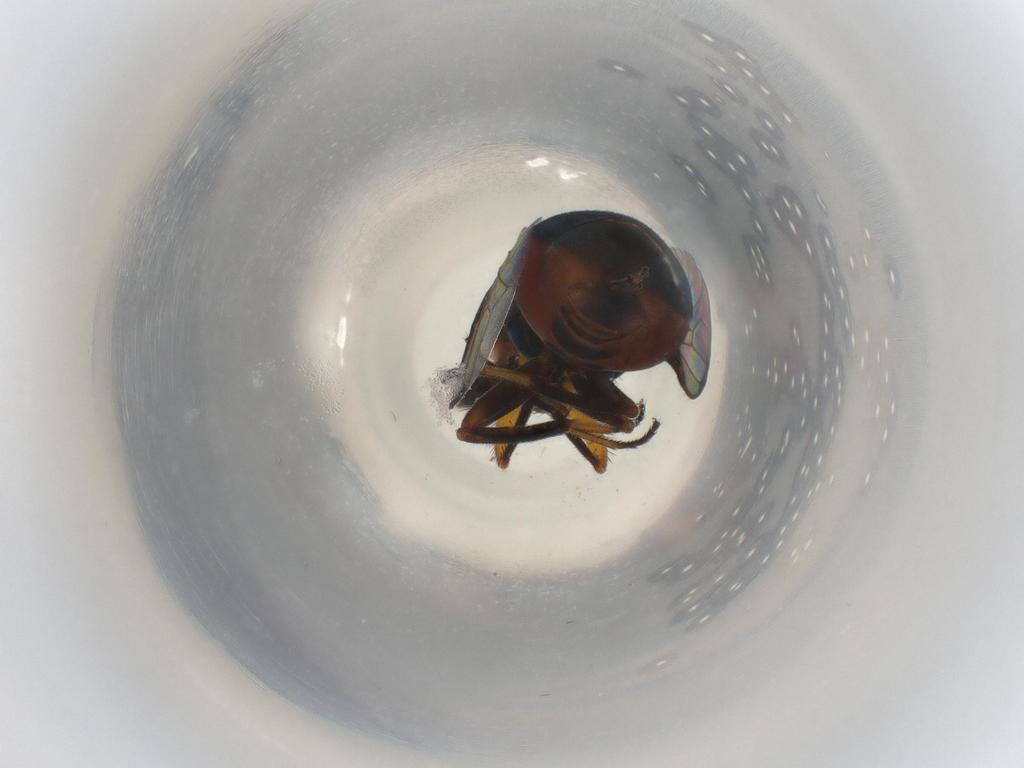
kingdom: Animalia
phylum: Arthropoda
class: Insecta
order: Diptera
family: Ulidiidae
